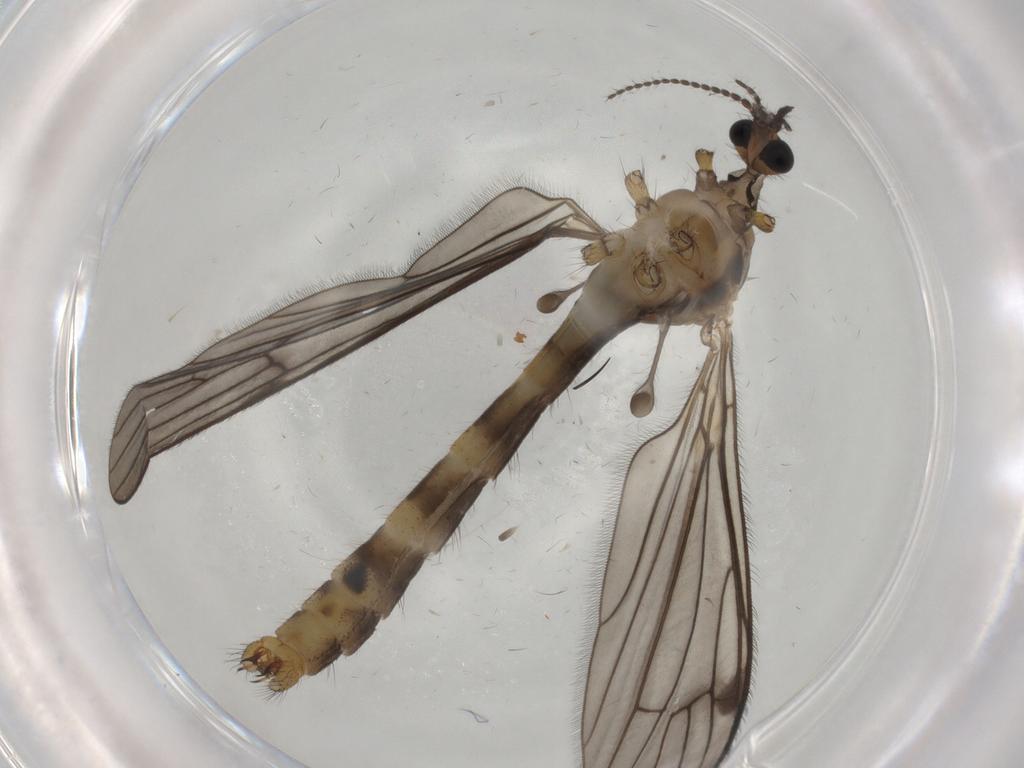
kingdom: Animalia
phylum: Arthropoda
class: Insecta
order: Diptera
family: Limoniidae
